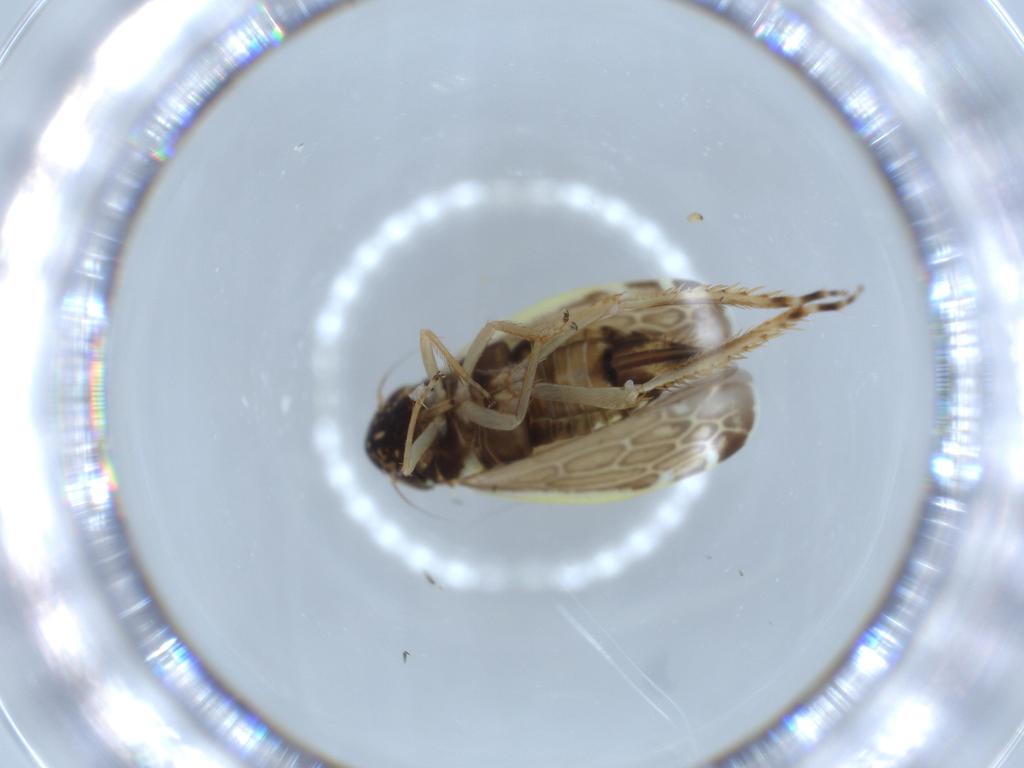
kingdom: Animalia
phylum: Arthropoda
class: Insecta
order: Hemiptera
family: Cicadellidae
